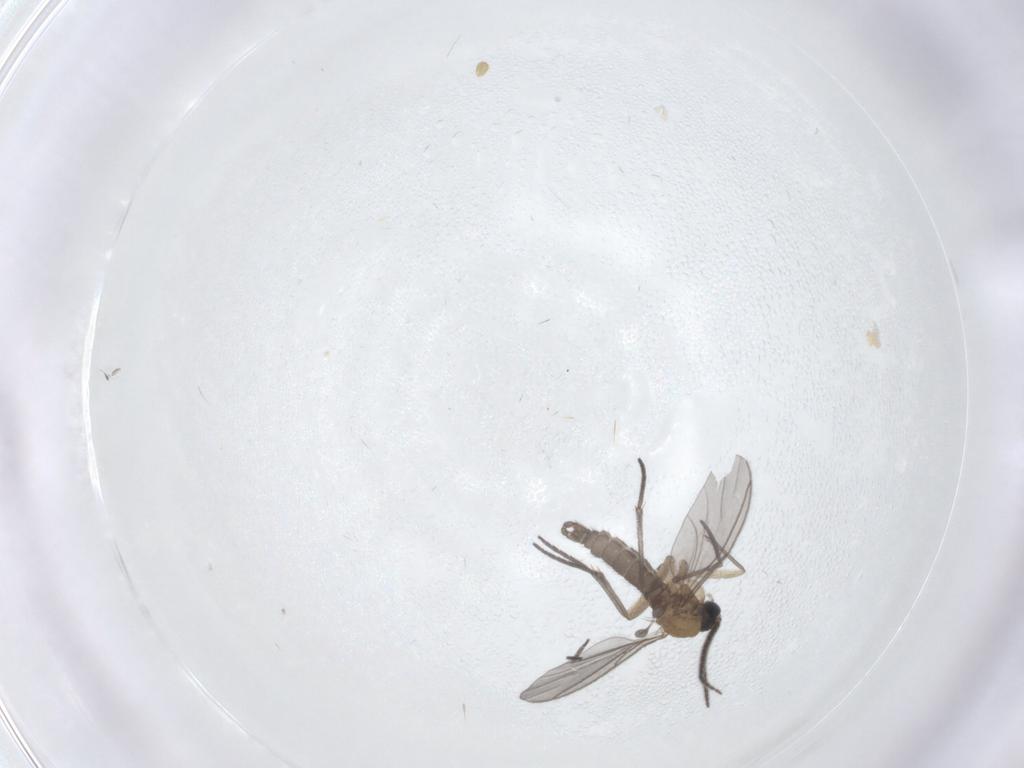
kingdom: Animalia
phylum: Arthropoda
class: Insecta
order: Diptera
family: Sciaridae
